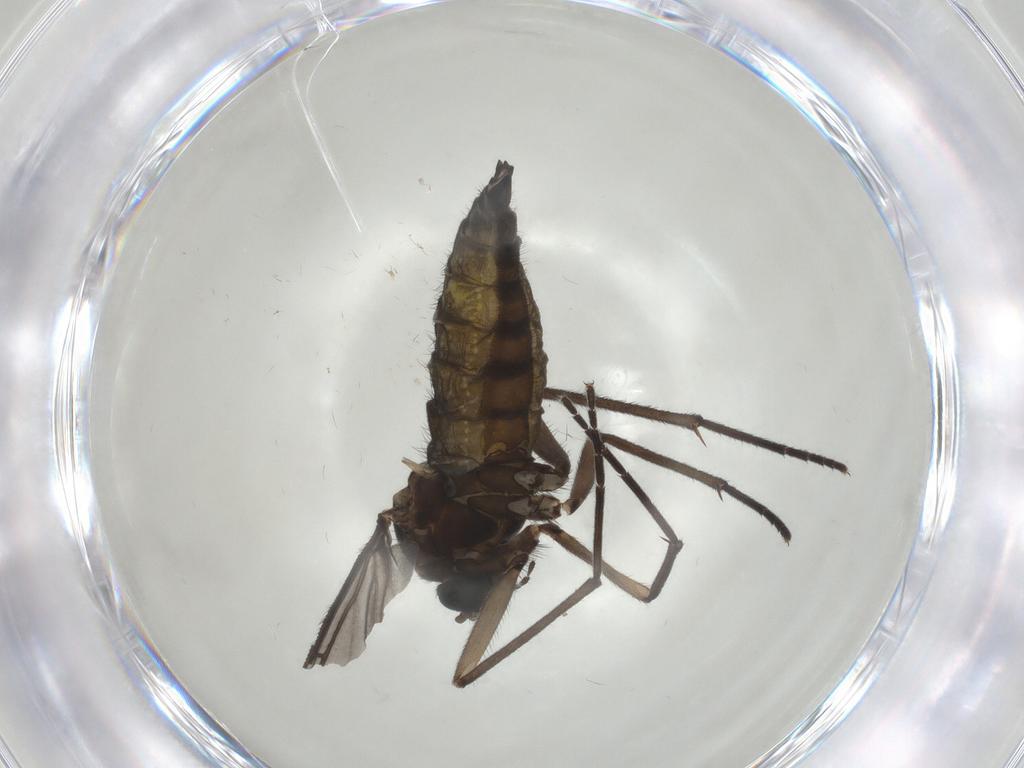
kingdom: Animalia
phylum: Arthropoda
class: Insecta
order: Diptera
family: Sciaridae
